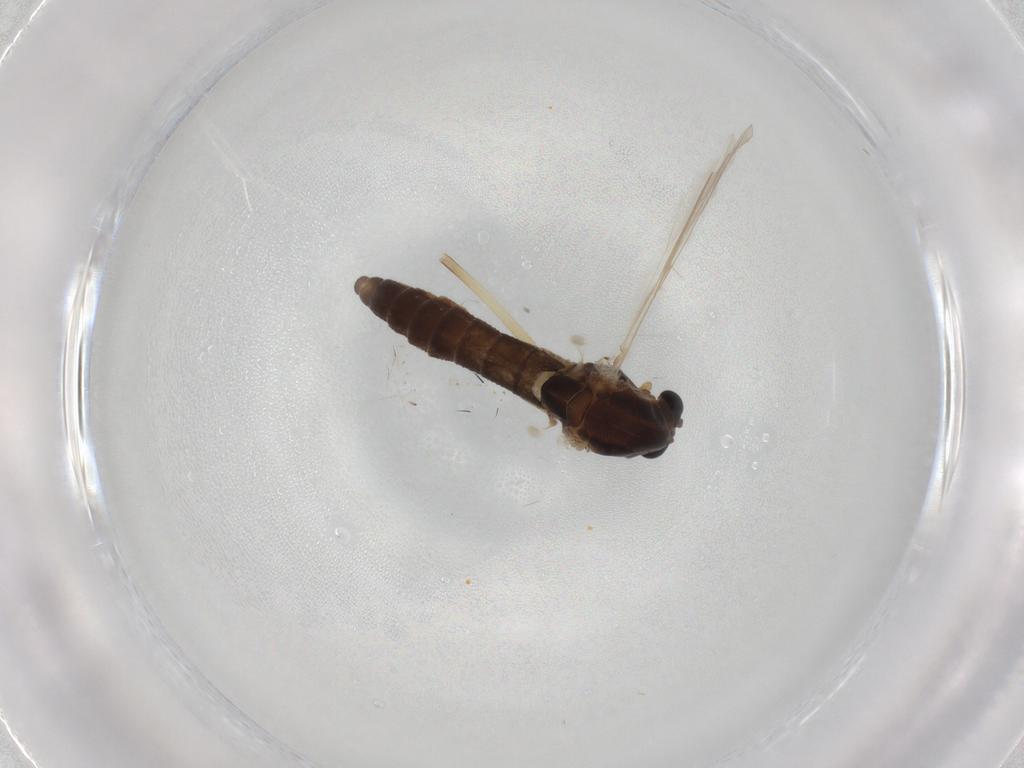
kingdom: Animalia
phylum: Arthropoda
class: Insecta
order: Diptera
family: Chironomidae
